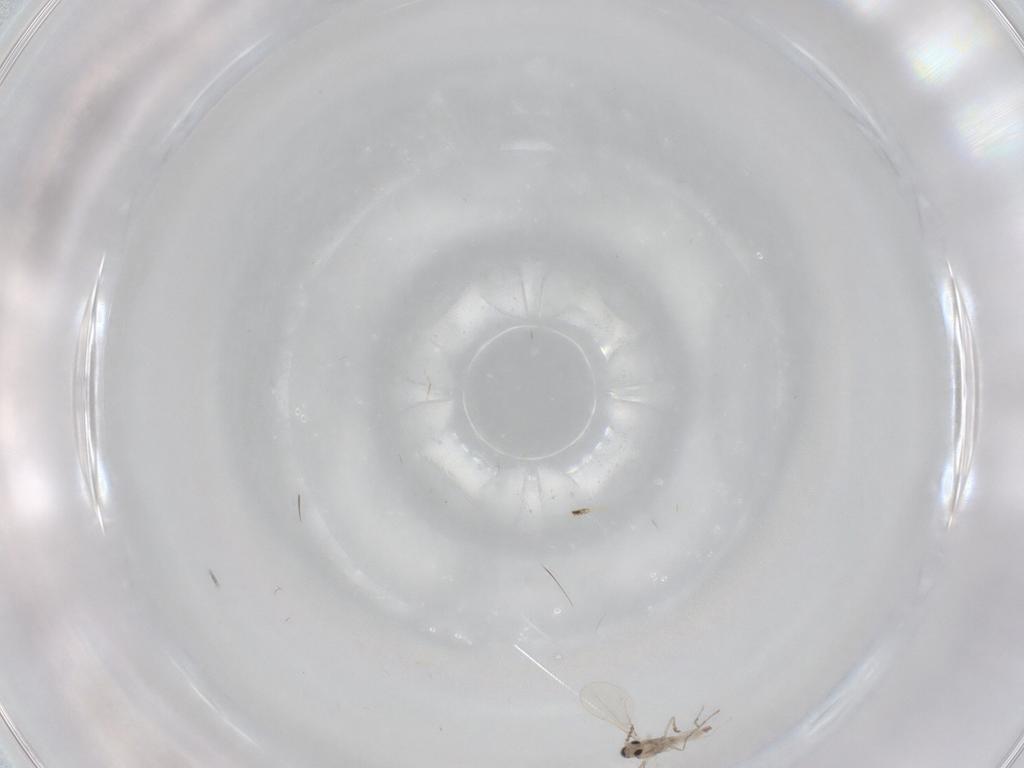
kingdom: Animalia
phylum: Arthropoda
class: Insecta
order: Diptera
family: Cecidomyiidae
